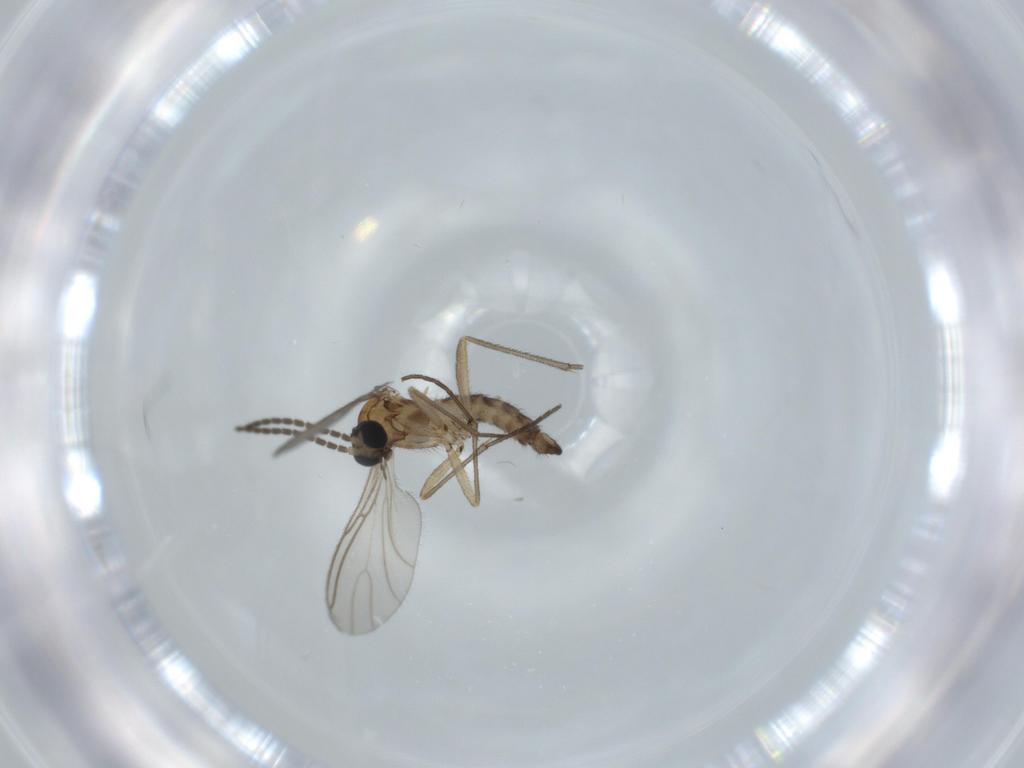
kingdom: Animalia
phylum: Arthropoda
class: Insecta
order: Diptera
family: Sciaridae
